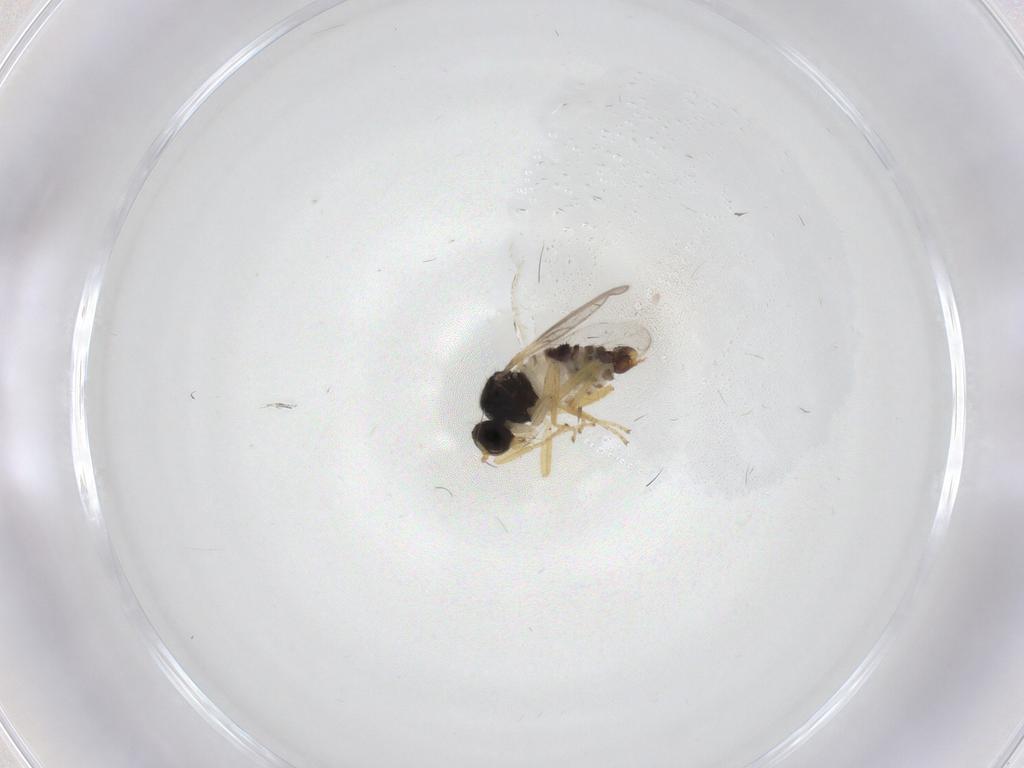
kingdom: Animalia
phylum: Arthropoda
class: Insecta
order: Diptera
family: Hybotidae
